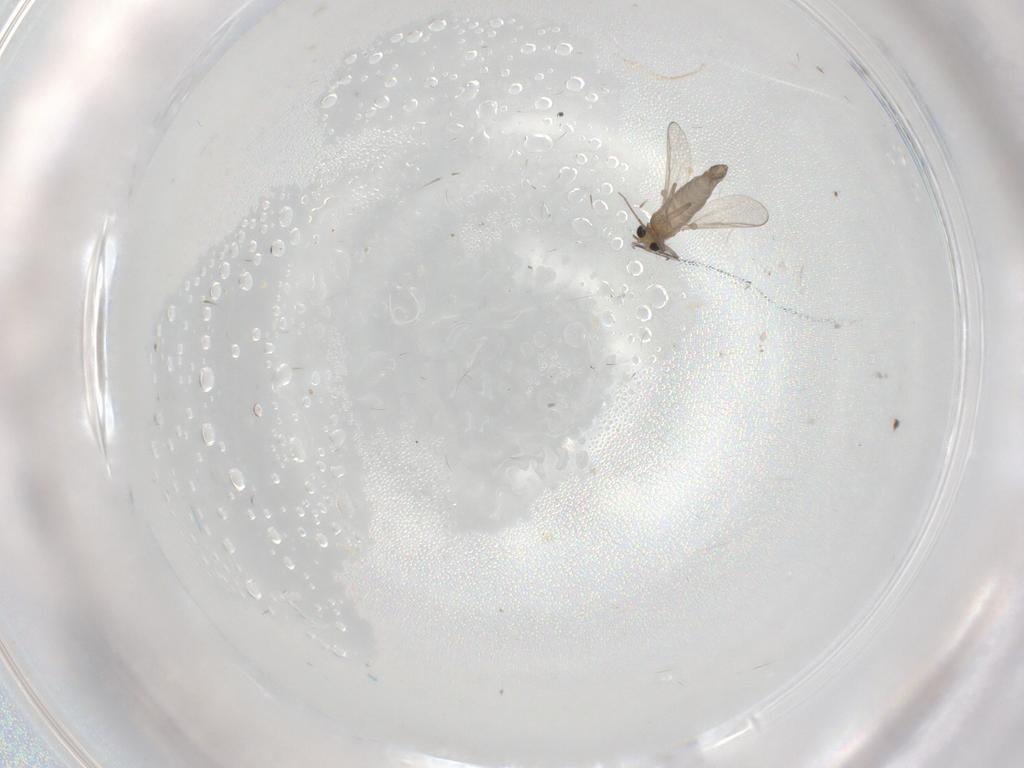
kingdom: Animalia
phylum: Arthropoda
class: Insecta
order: Diptera
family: Chironomidae
